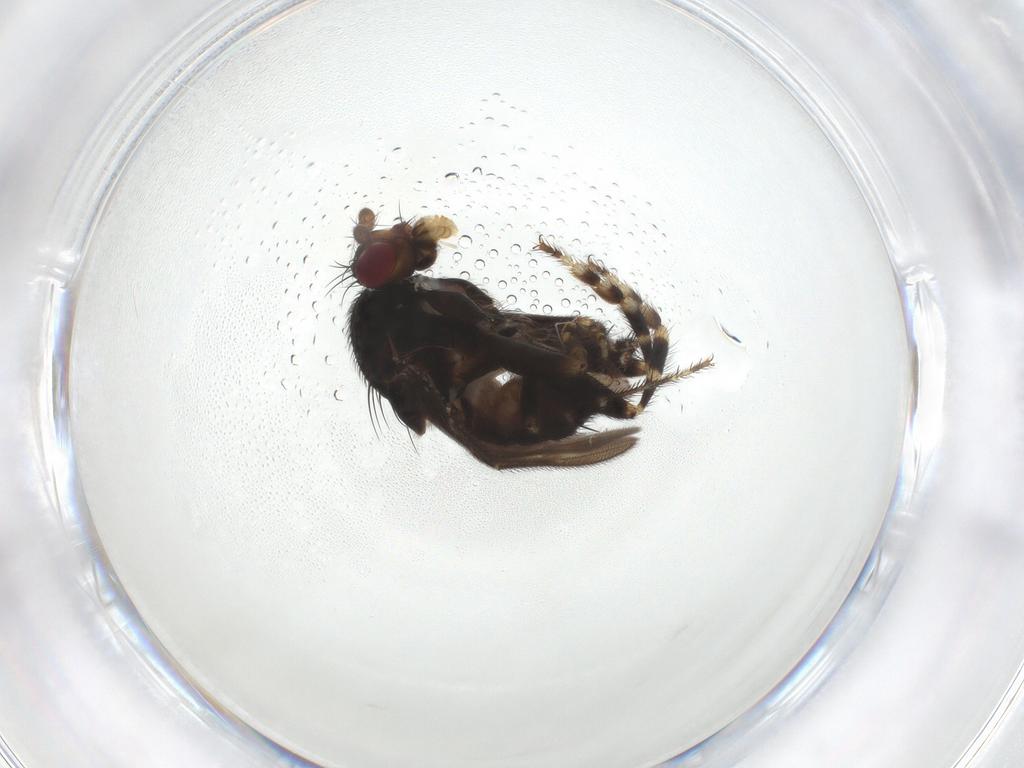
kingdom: Animalia
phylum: Arthropoda
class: Insecta
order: Diptera
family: Sphaeroceridae
